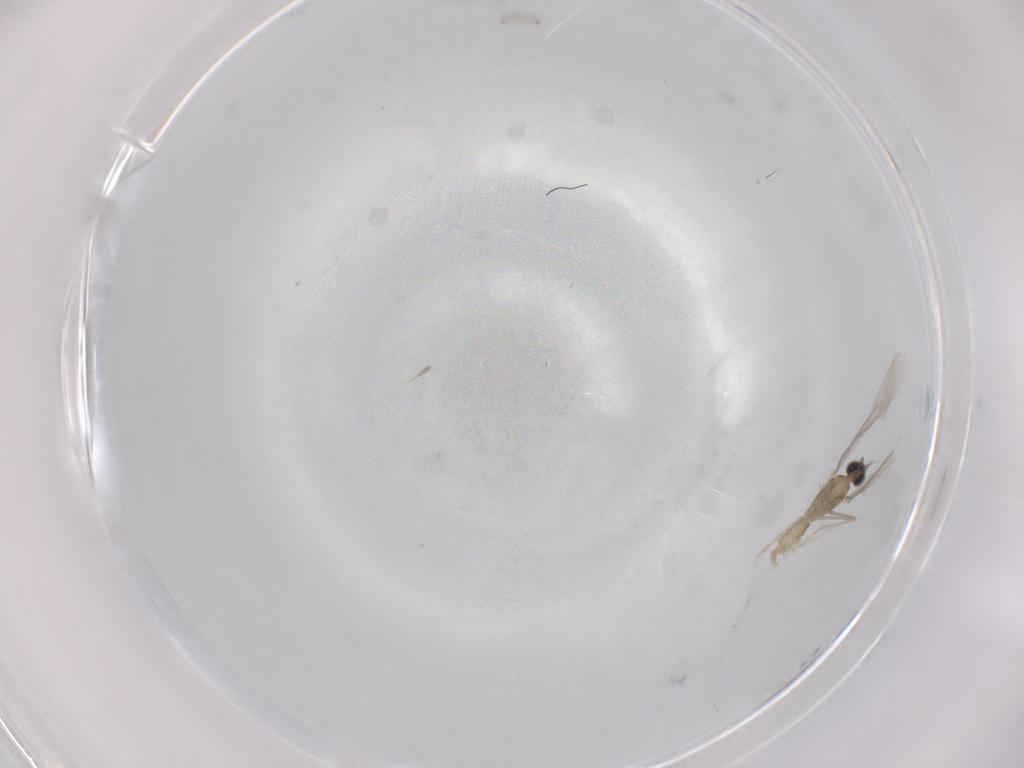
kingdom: Animalia
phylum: Arthropoda
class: Insecta
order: Diptera
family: Cecidomyiidae
